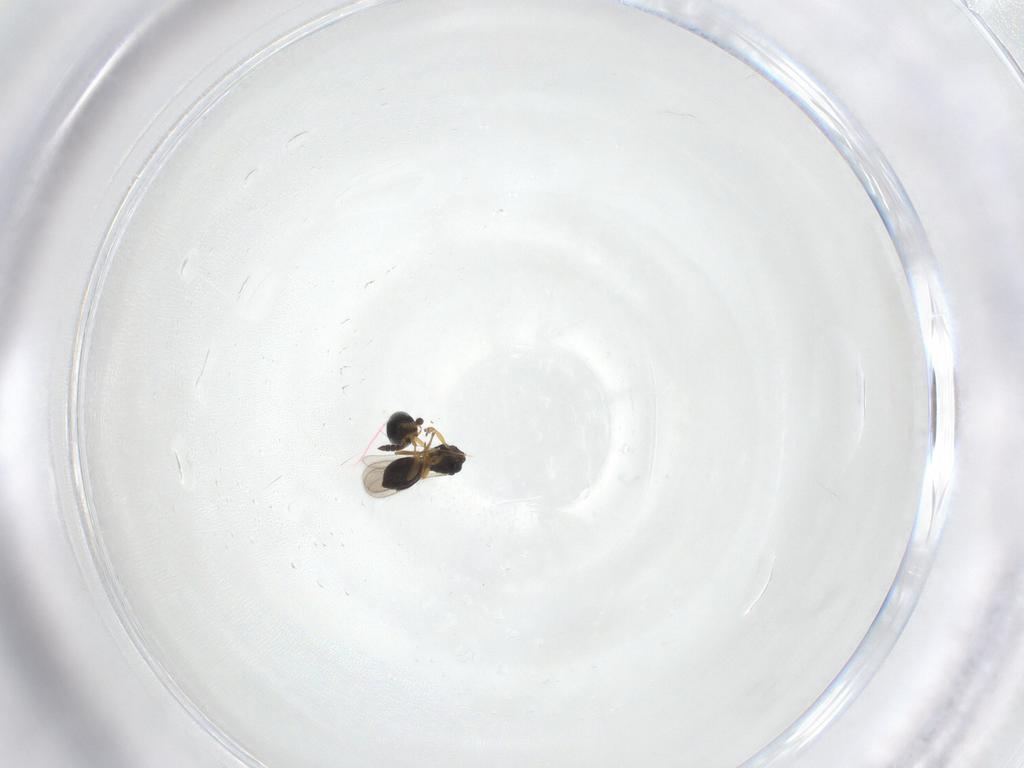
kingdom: Animalia
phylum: Arthropoda
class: Insecta
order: Hymenoptera
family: Scelionidae
